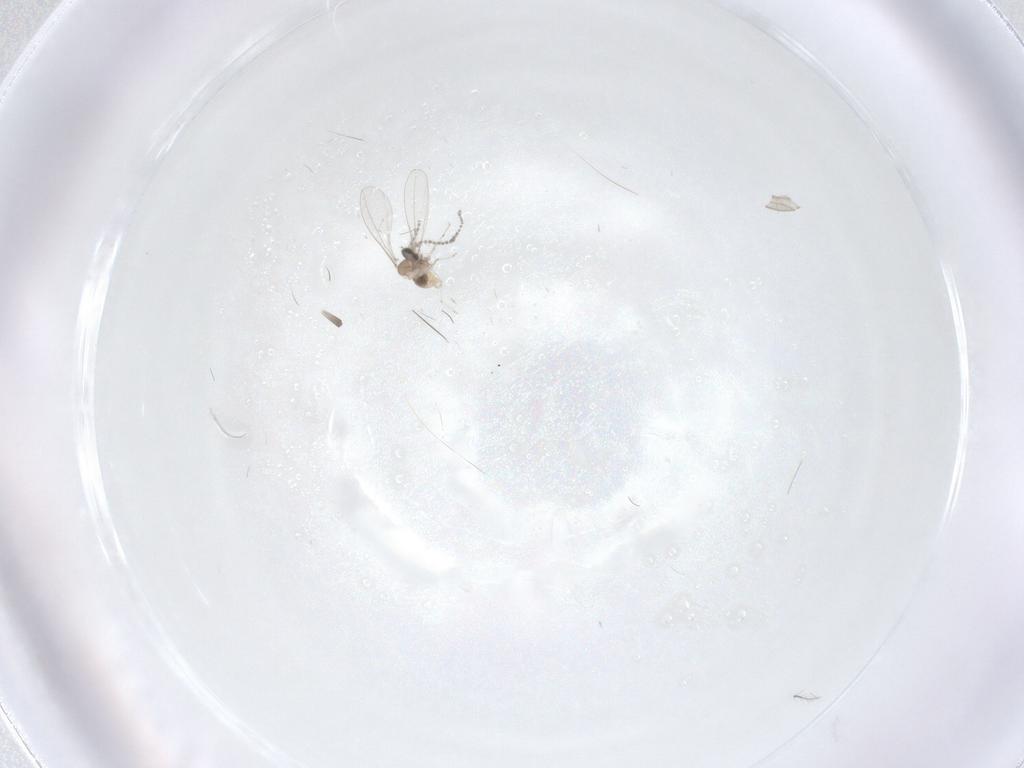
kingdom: Animalia
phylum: Arthropoda
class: Insecta
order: Diptera
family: Cecidomyiidae
